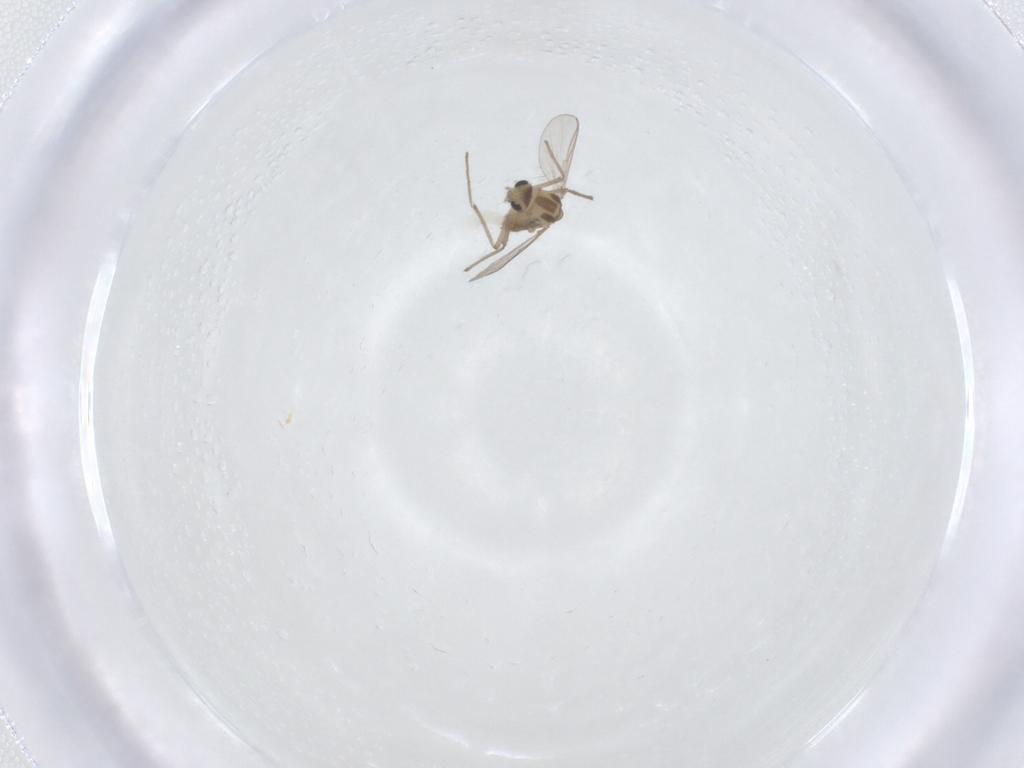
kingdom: Animalia
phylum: Arthropoda
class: Insecta
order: Diptera
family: Chironomidae
